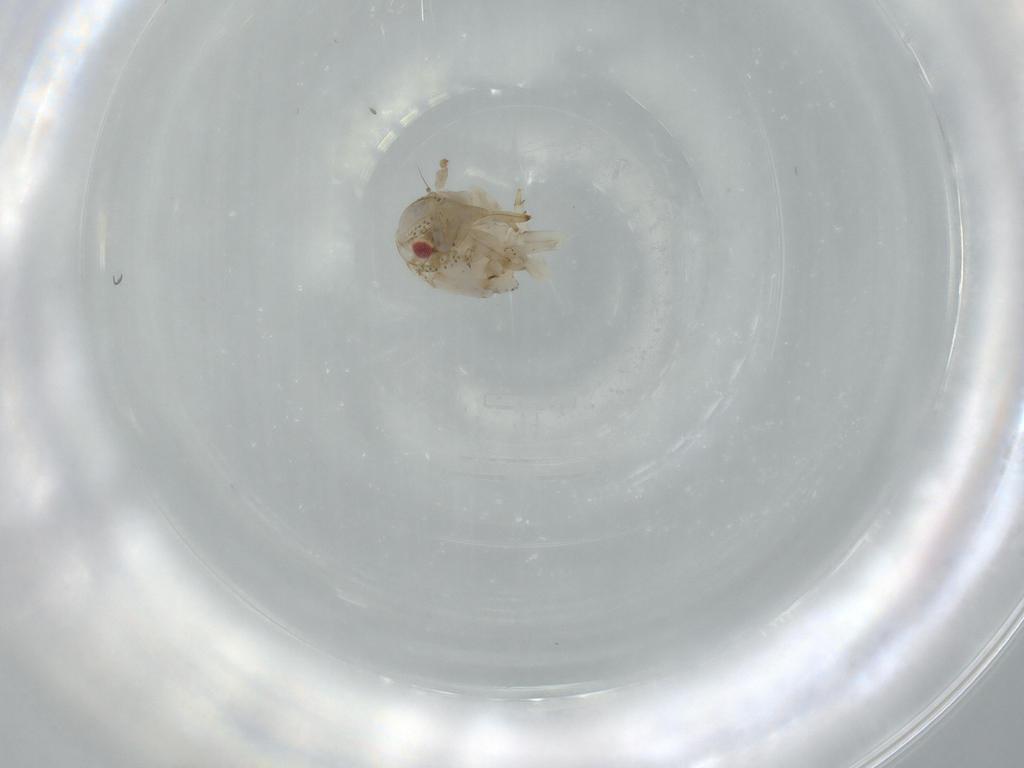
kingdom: Animalia
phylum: Arthropoda
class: Insecta
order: Hemiptera
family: Acanaloniidae
